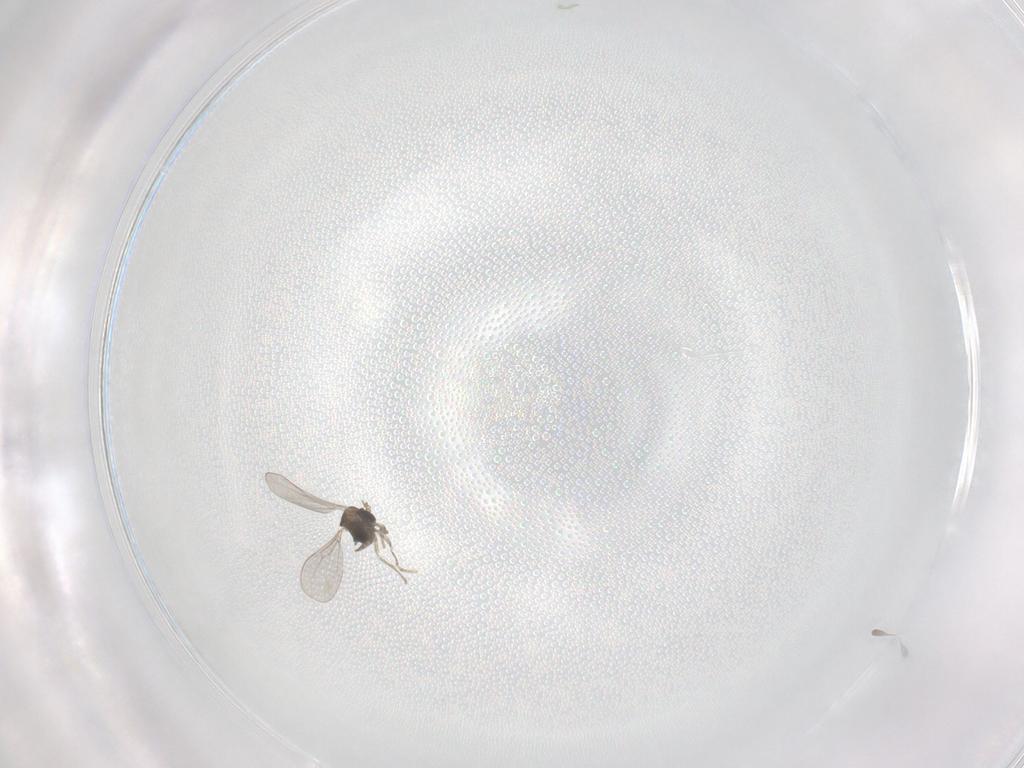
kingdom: Animalia
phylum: Arthropoda
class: Insecta
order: Diptera
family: Cecidomyiidae
